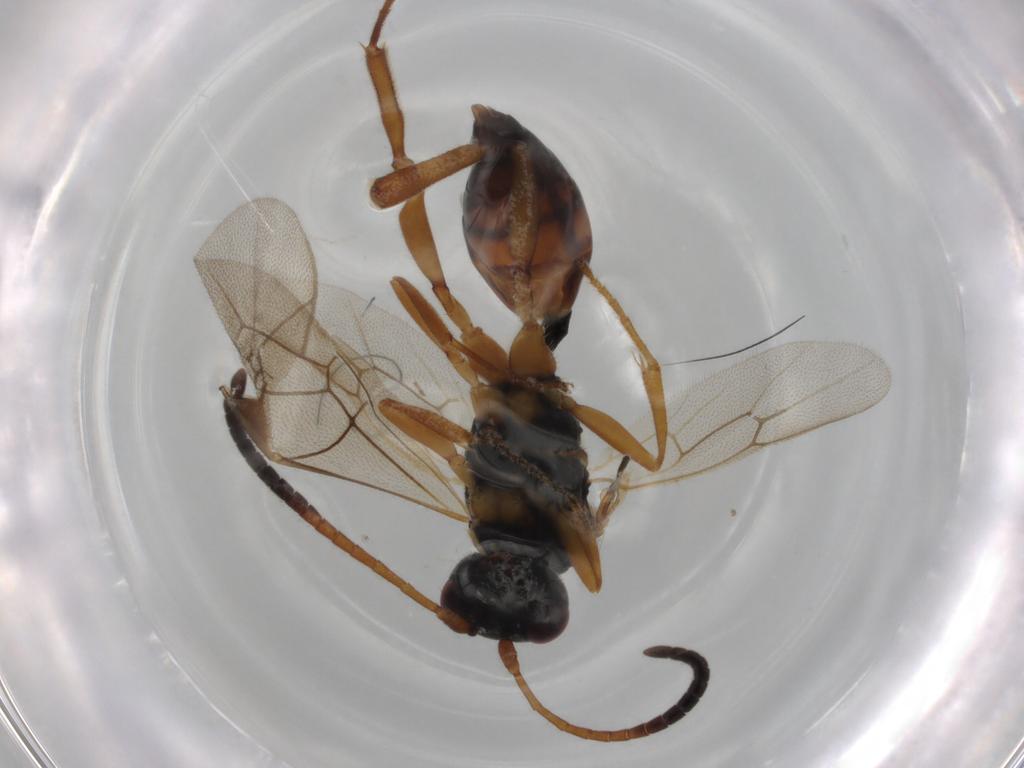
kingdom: Animalia
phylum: Arthropoda
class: Insecta
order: Hymenoptera
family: Ichneumonidae
